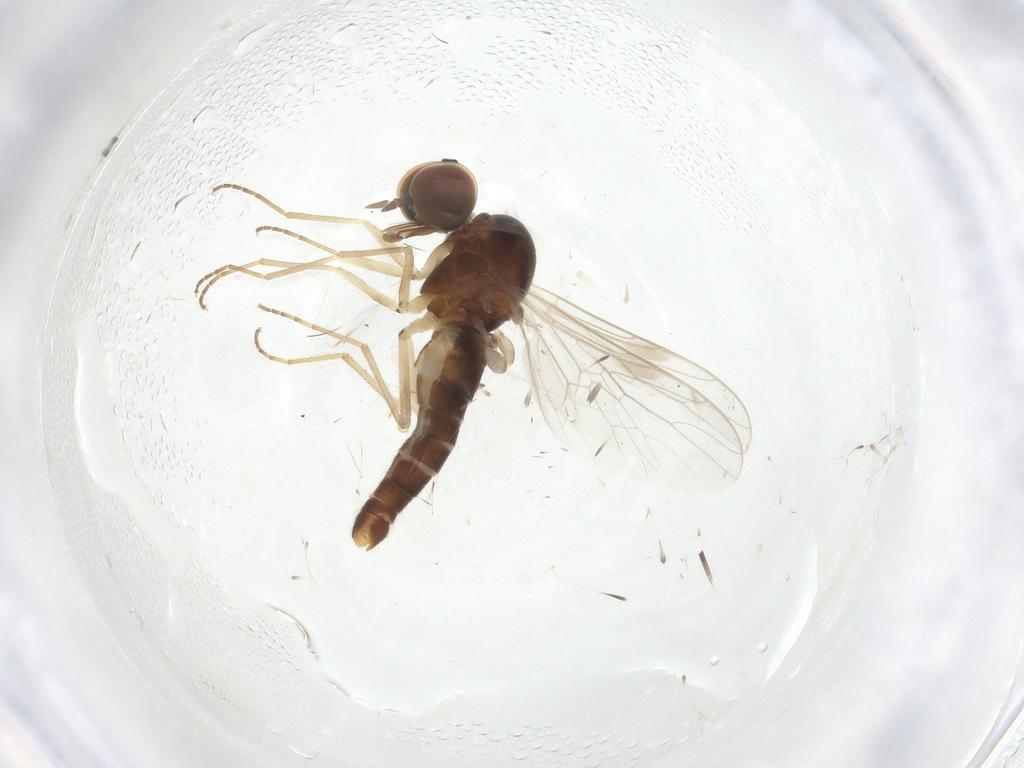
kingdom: Animalia
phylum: Arthropoda
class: Insecta
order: Diptera
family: Scenopinidae
